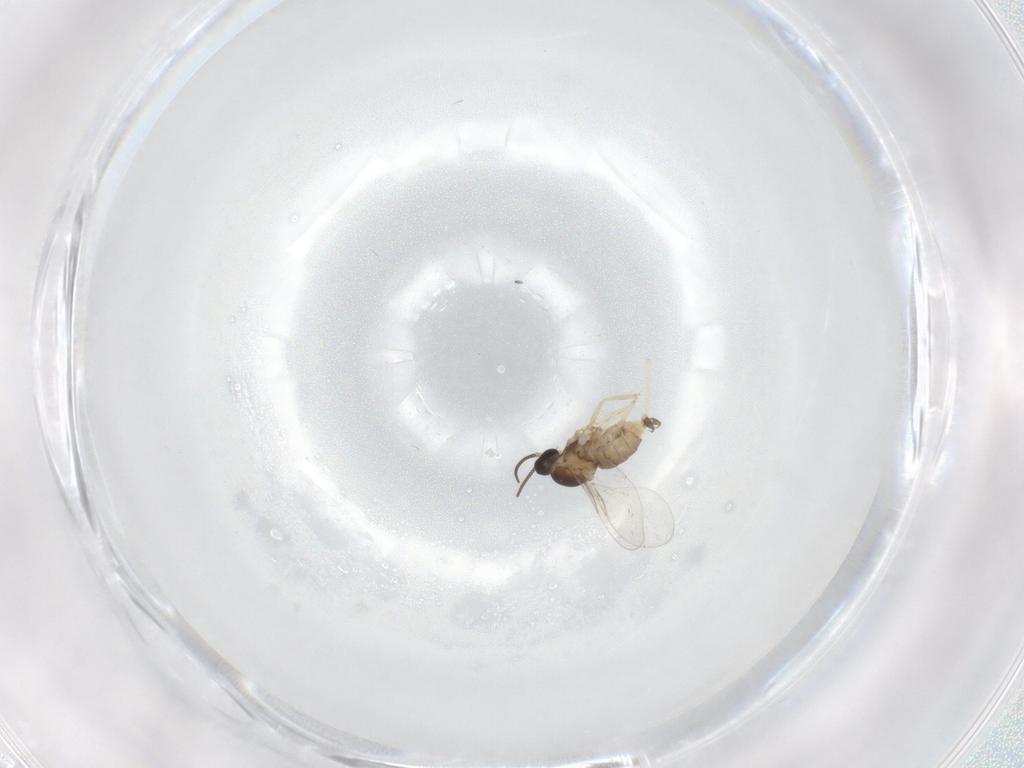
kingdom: Animalia
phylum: Arthropoda
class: Insecta
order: Diptera
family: Cecidomyiidae
